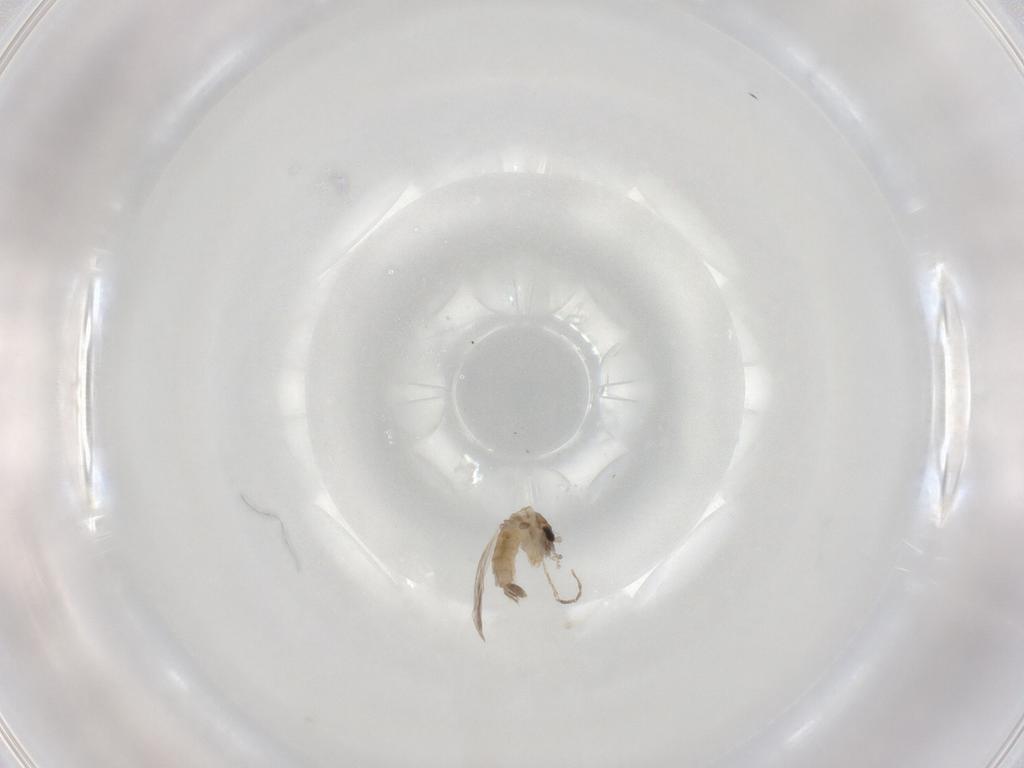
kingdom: Animalia
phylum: Arthropoda
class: Insecta
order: Diptera
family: Psychodidae
